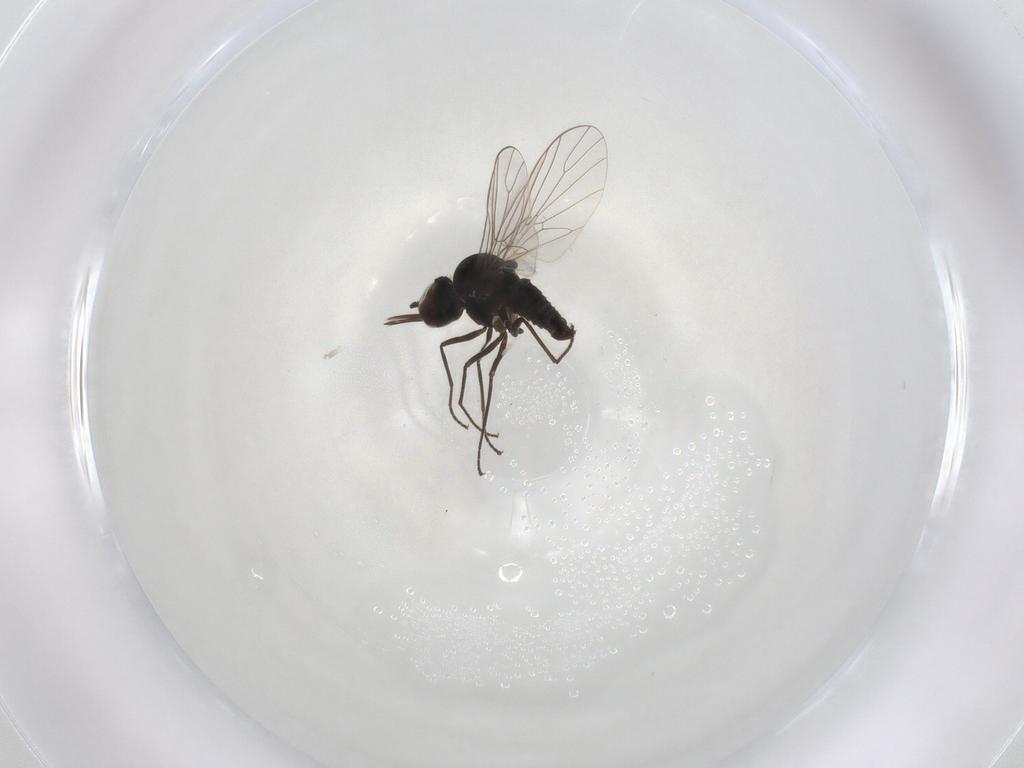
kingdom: Animalia
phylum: Arthropoda
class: Insecta
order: Diptera
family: Bombyliidae
